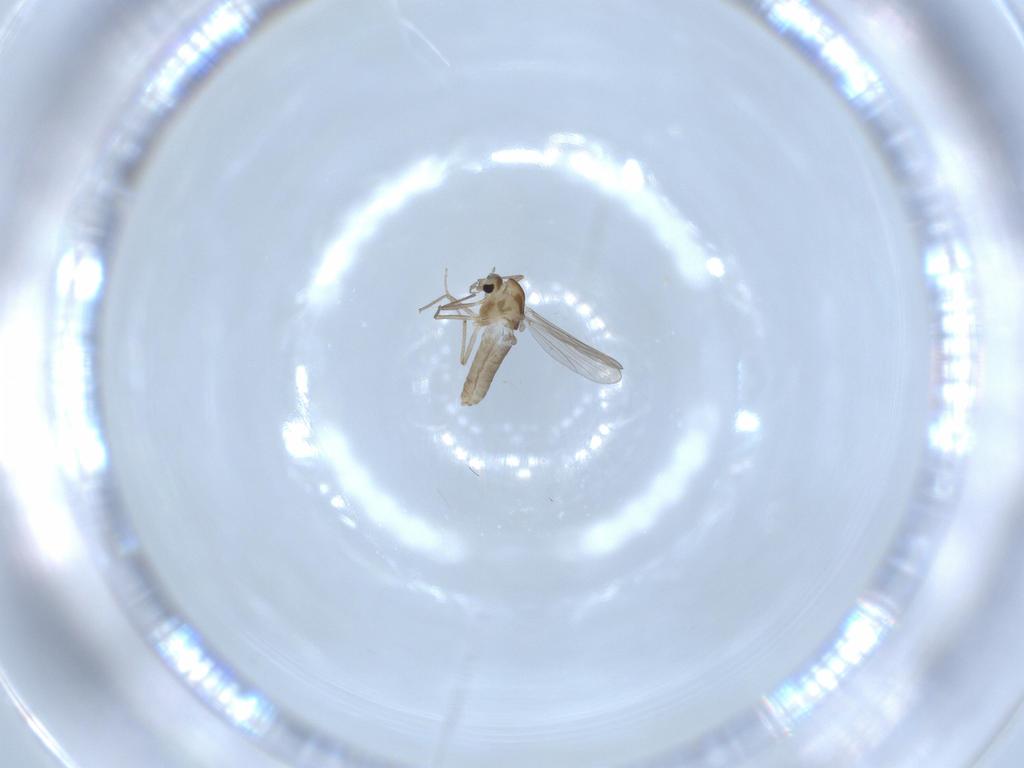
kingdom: Animalia
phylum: Arthropoda
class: Insecta
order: Diptera
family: Chironomidae
